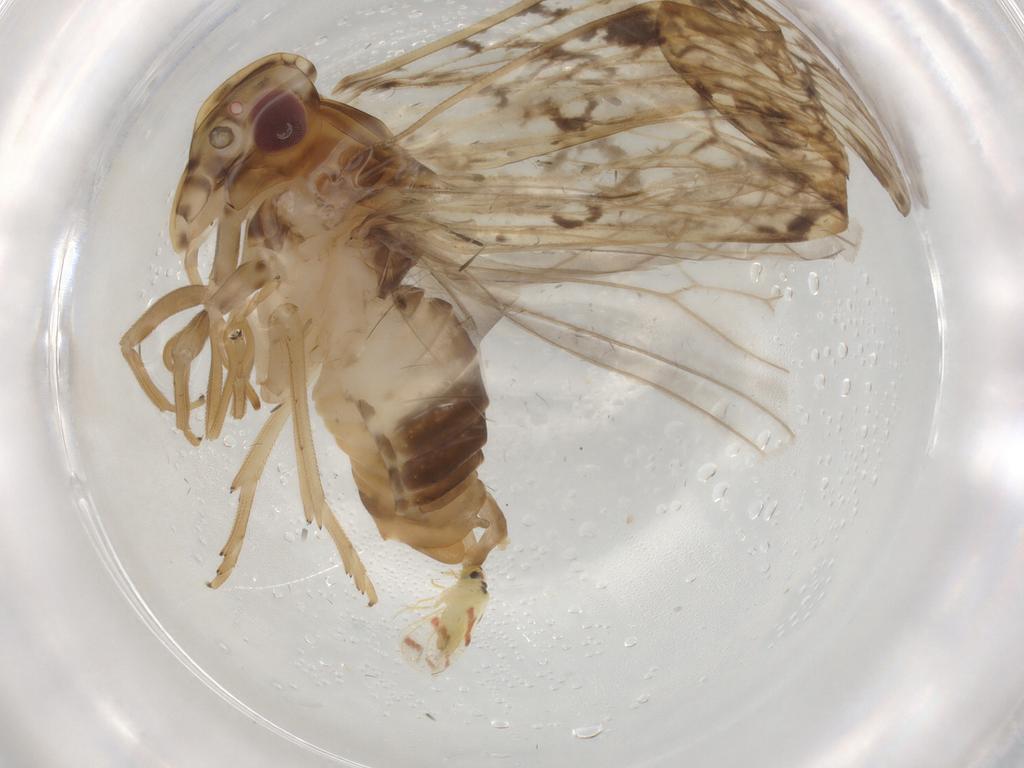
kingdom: Animalia
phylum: Arthropoda
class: Insecta
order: Hemiptera
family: Cixiidae
